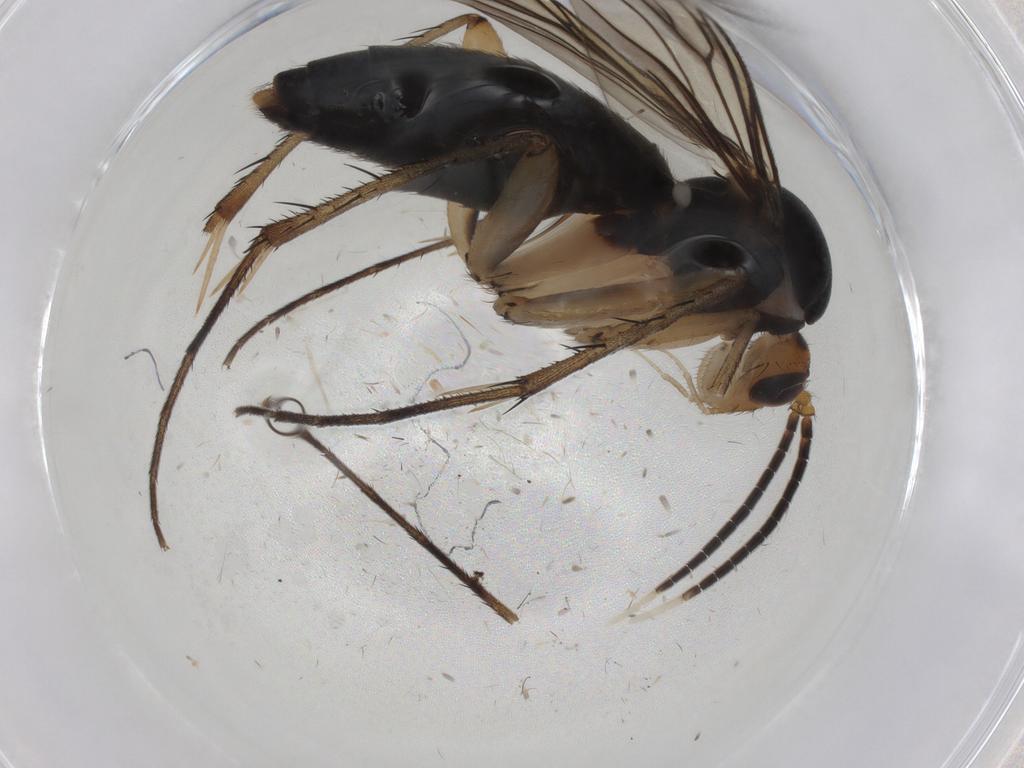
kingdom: Animalia
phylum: Arthropoda
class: Insecta
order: Diptera
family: Mycetophilidae
